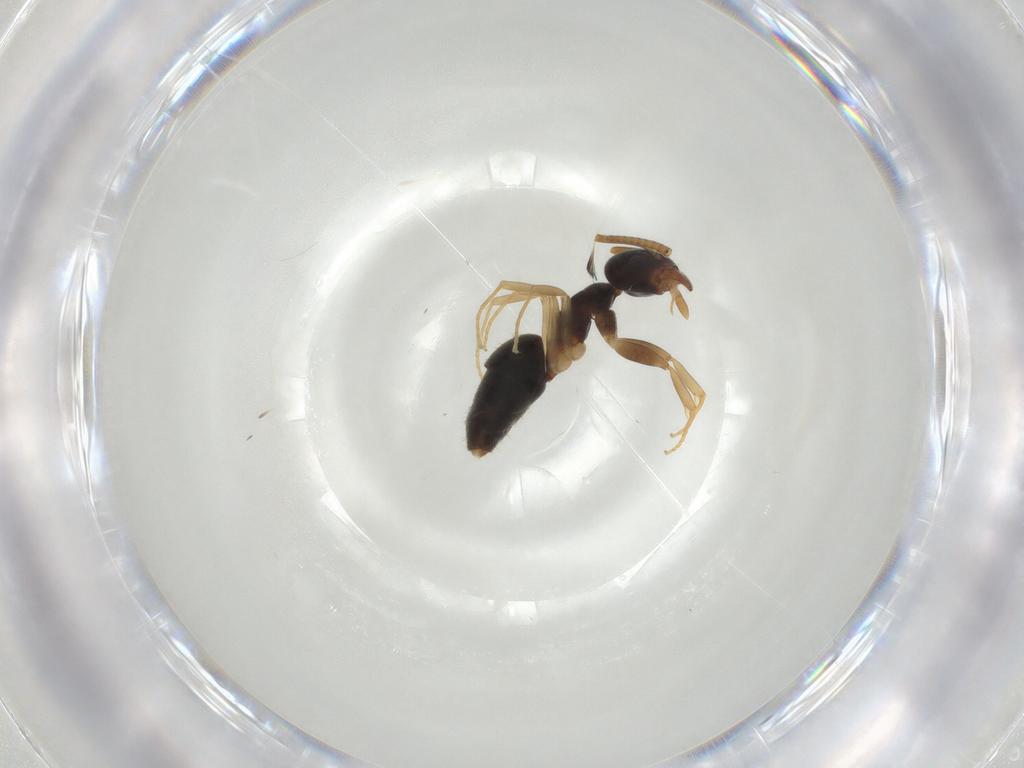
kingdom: Animalia
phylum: Arthropoda
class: Insecta
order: Hymenoptera
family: Formicidae
